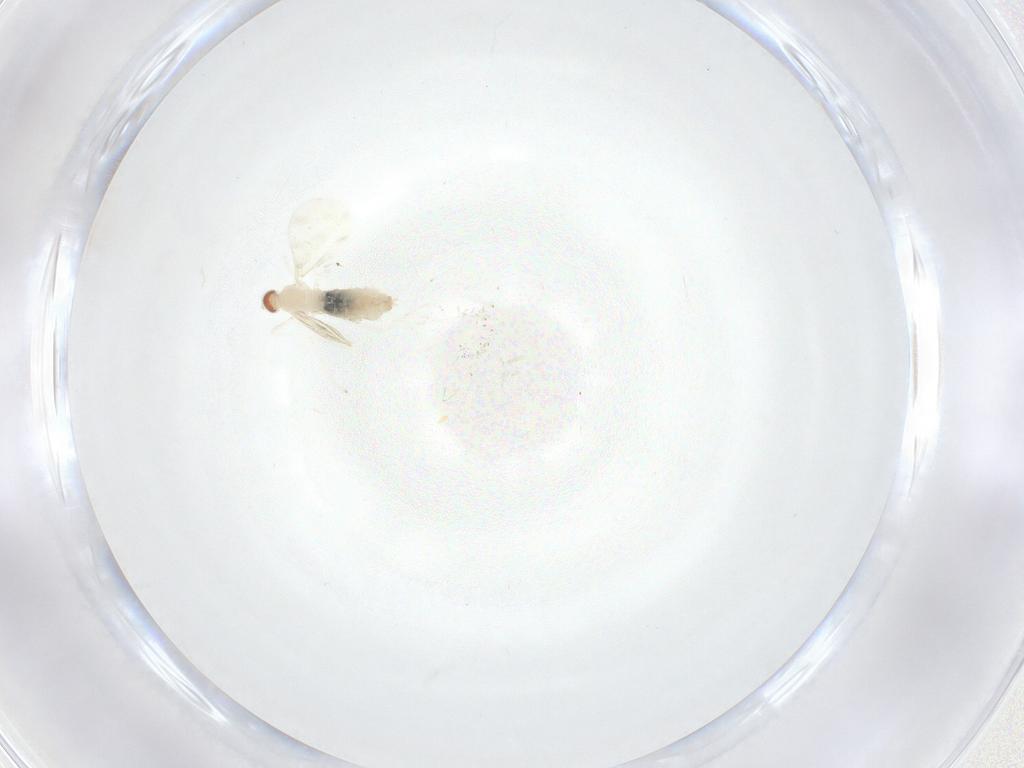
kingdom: Animalia
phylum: Arthropoda
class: Insecta
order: Diptera
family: Cecidomyiidae
